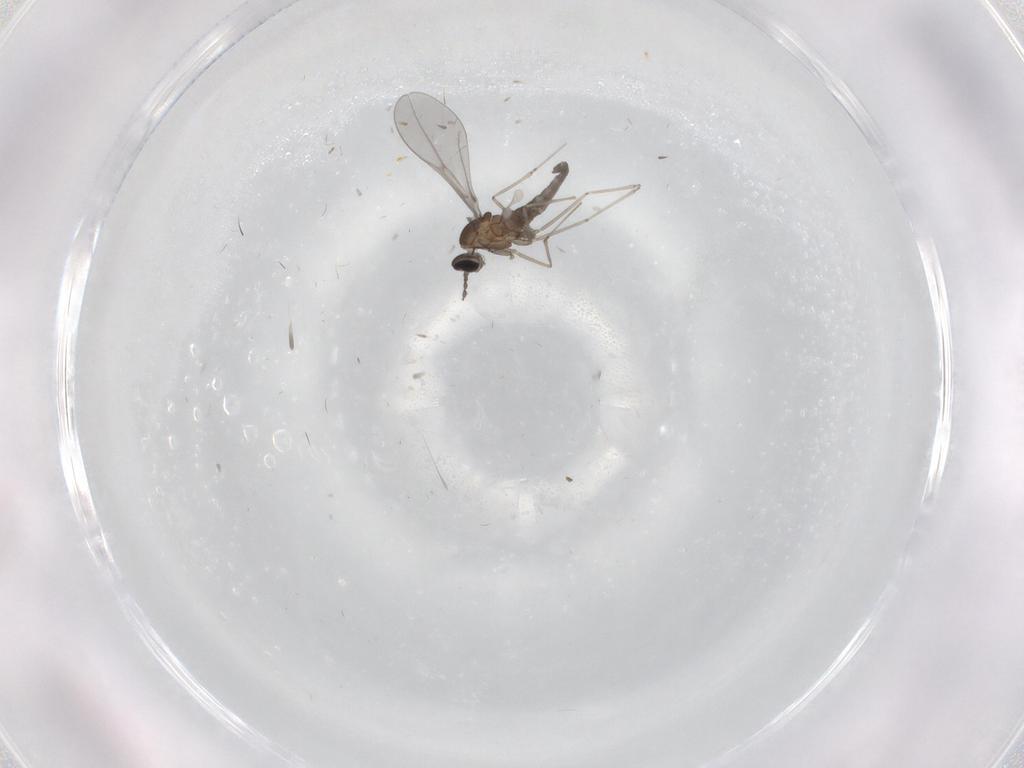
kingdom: Animalia
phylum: Arthropoda
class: Insecta
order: Diptera
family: Cecidomyiidae
